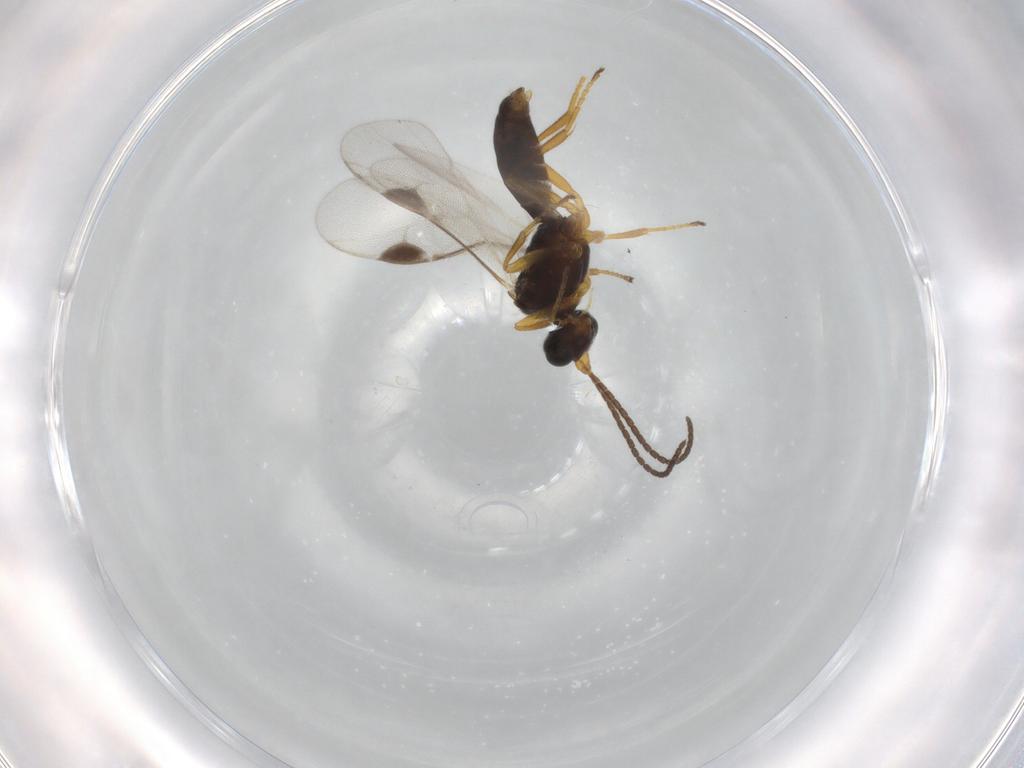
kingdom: Animalia
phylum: Arthropoda
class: Insecta
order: Hymenoptera
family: Braconidae
